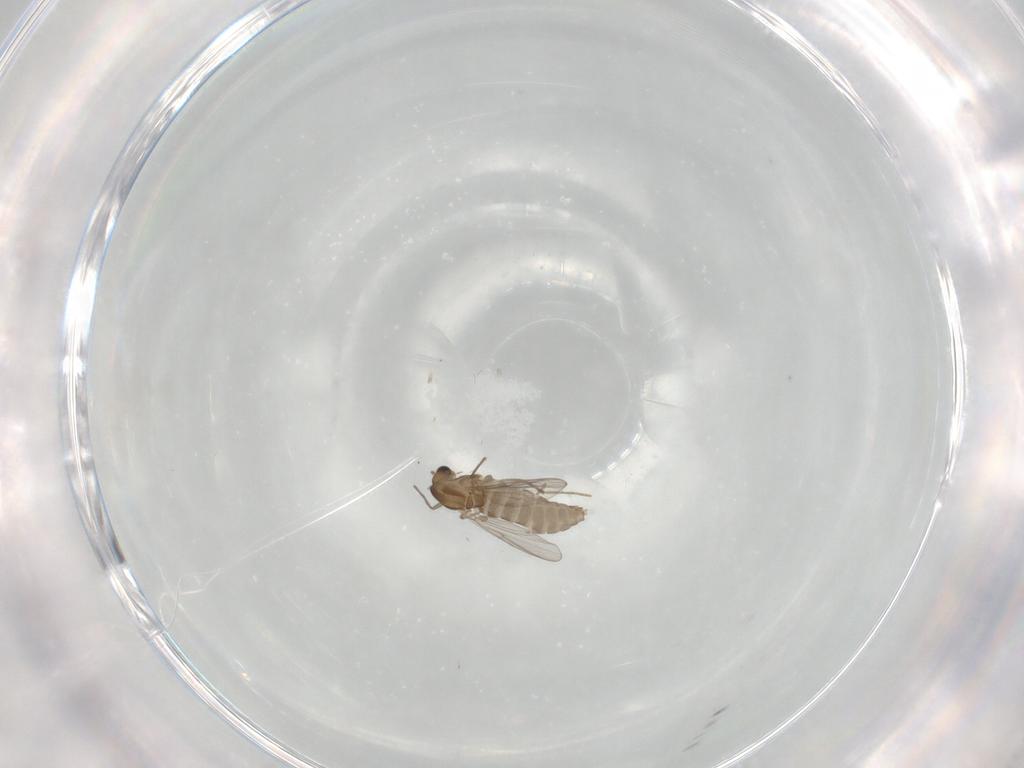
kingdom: Animalia
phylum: Arthropoda
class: Insecta
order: Diptera
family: Chironomidae
